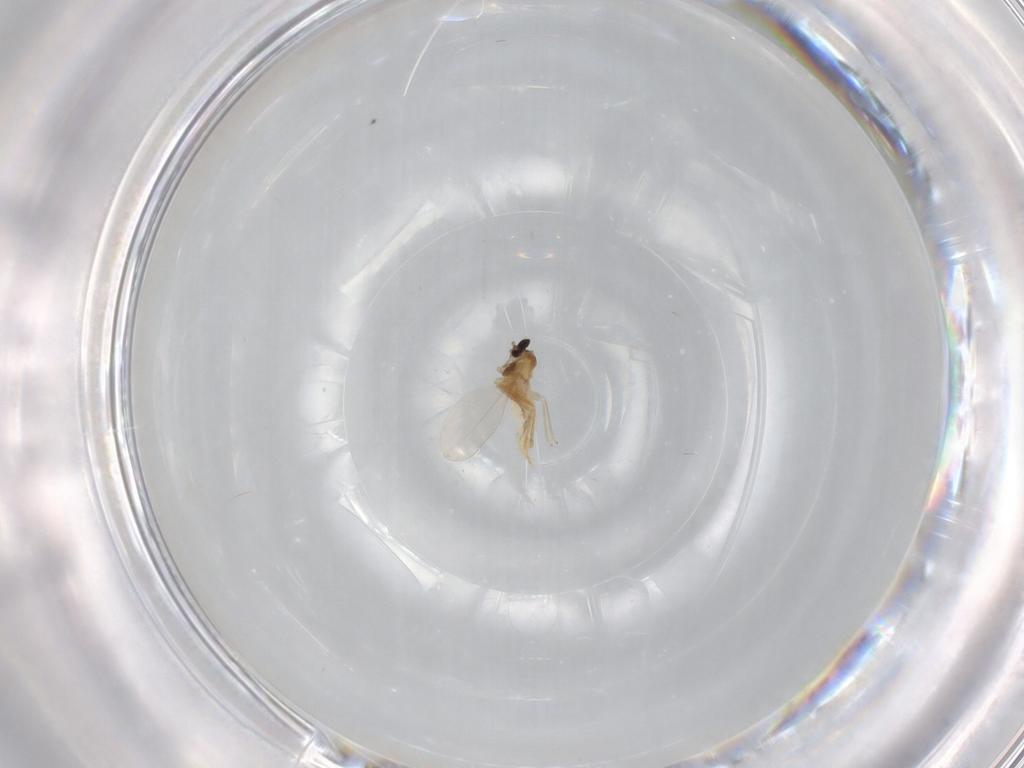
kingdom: Animalia
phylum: Arthropoda
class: Insecta
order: Diptera
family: Cecidomyiidae
